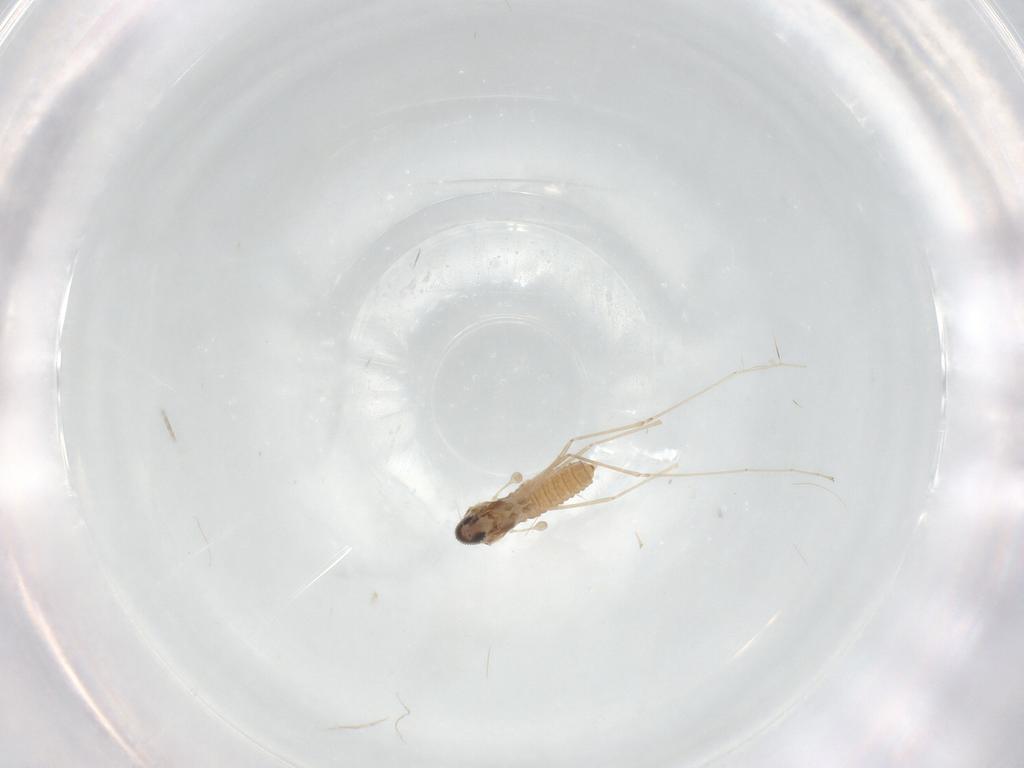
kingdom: Animalia
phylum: Arthropoda
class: Insecta
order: Diptera
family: Cecidomyiidae
